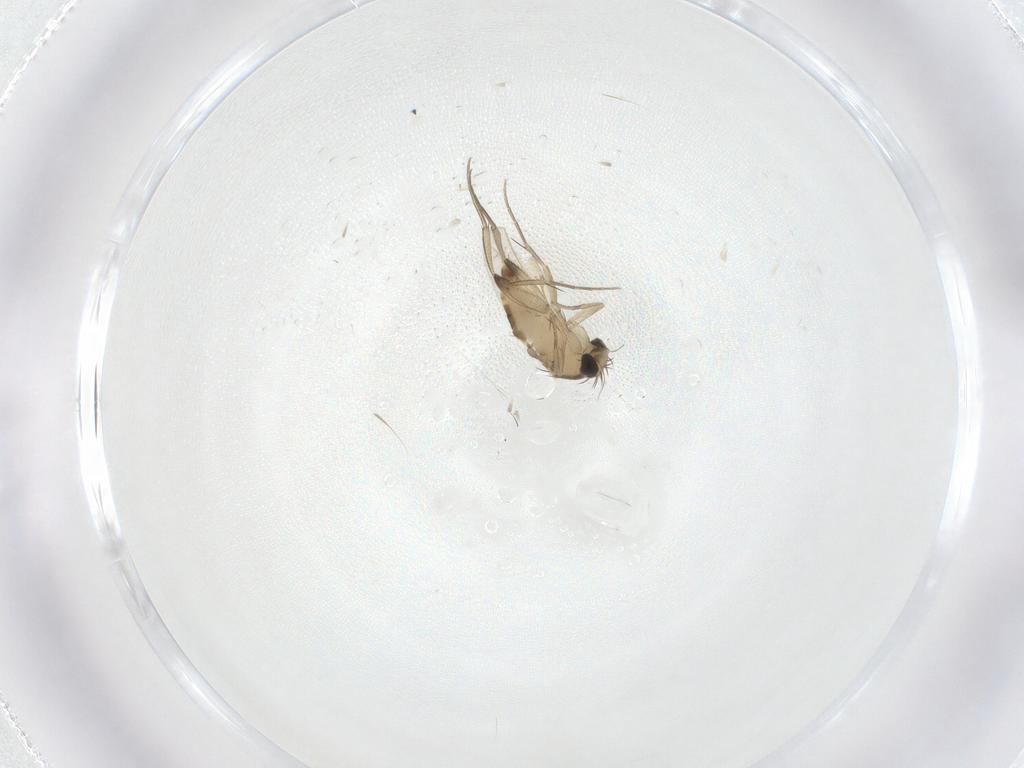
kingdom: Animalia
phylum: Arthropoda
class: Insecta
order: Diptera
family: Phoridae
